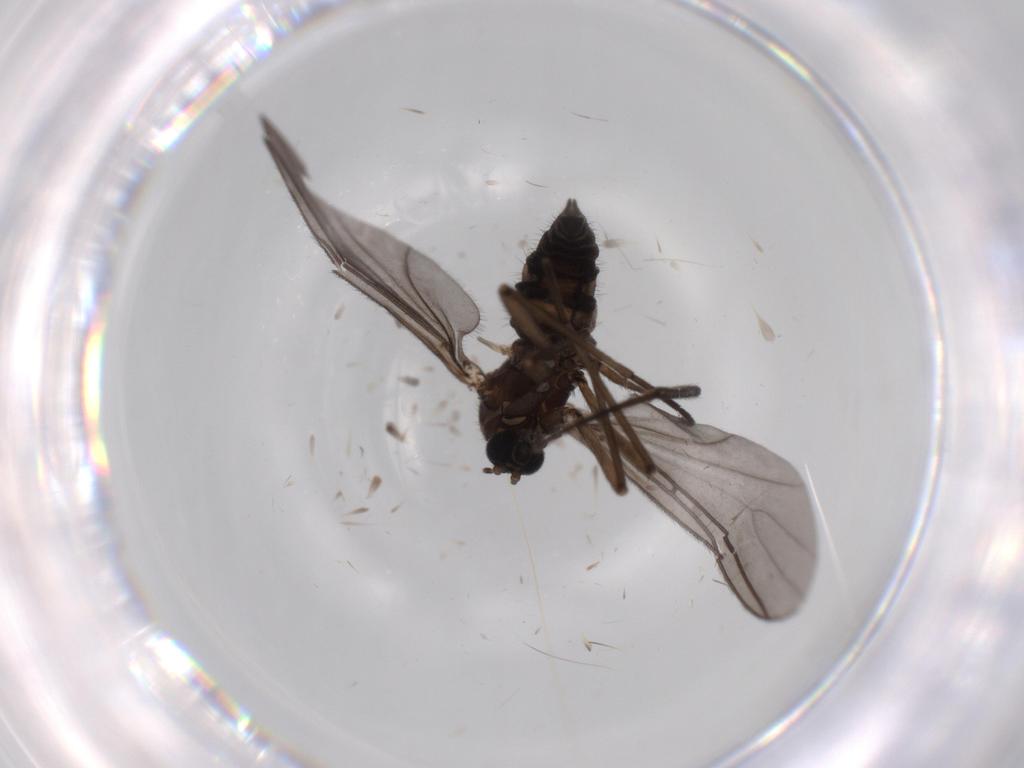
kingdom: Animalia
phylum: Arthropoda
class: Insecta
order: Diptera
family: Sciaridae
